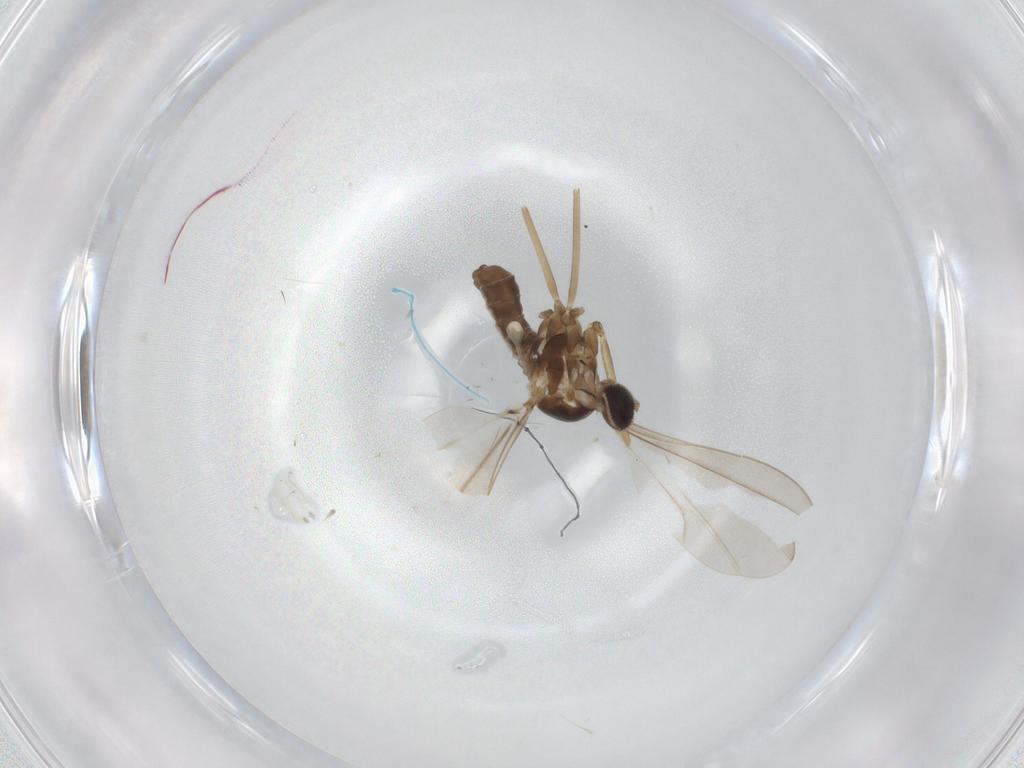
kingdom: Animalia
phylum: Arthropoda
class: Insecta
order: Diptera
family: Cecidomyiidae
